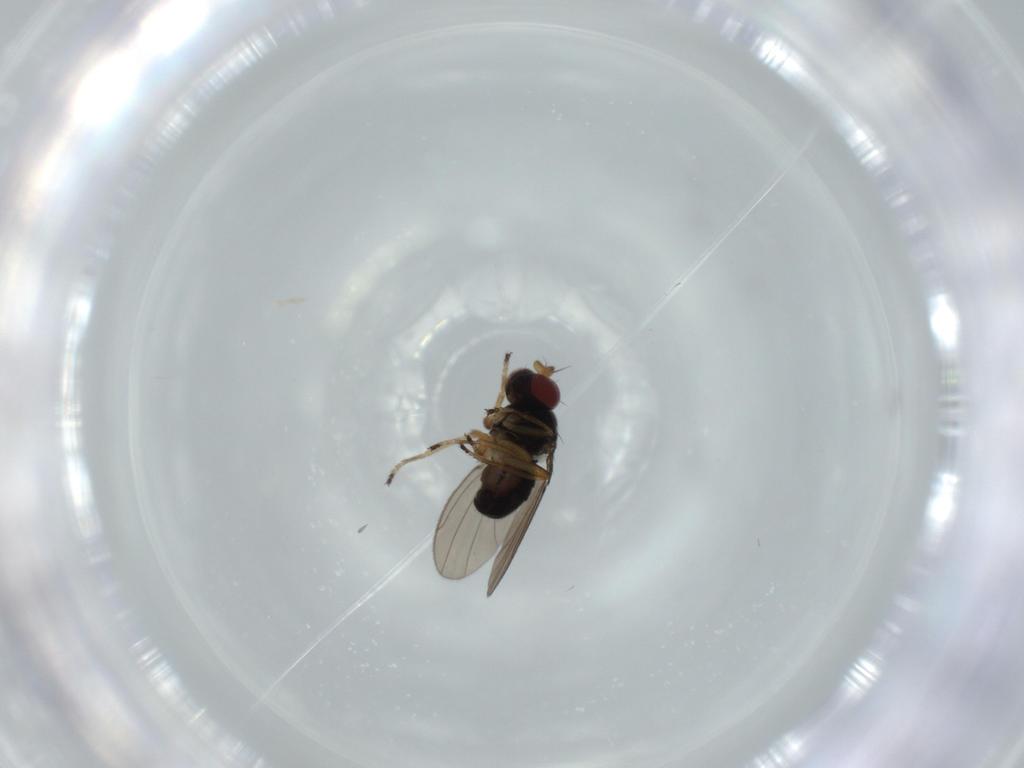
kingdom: Animalia
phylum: Arthropoda
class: Insecta
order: Diptera
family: Ephydridae
